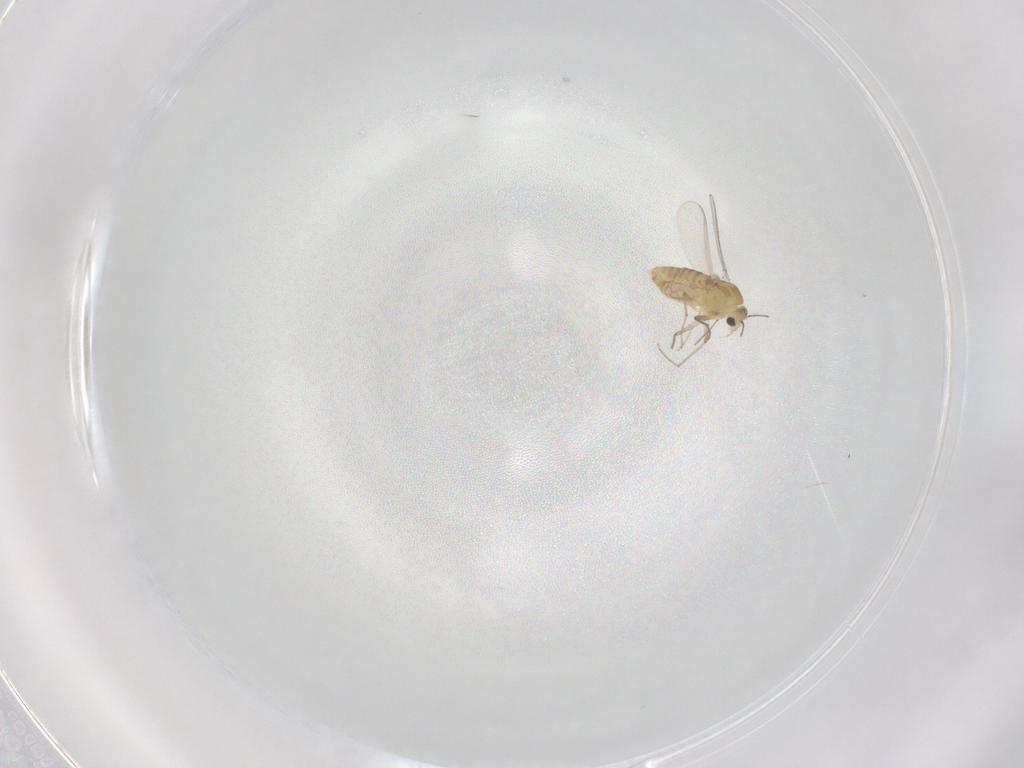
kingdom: Animalia
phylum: Arthropoda
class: Insecta
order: Diptera
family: Chironomidae
